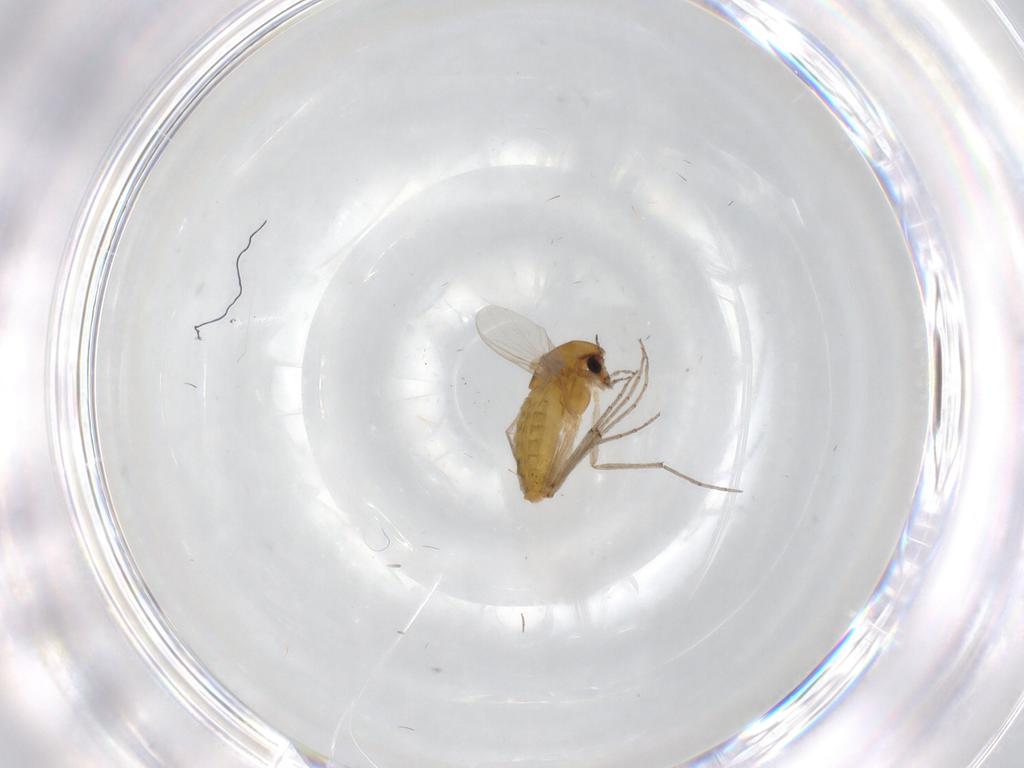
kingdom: Animalia
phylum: Arthropoda
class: Insecta
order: Diptera
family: Chironomidae
